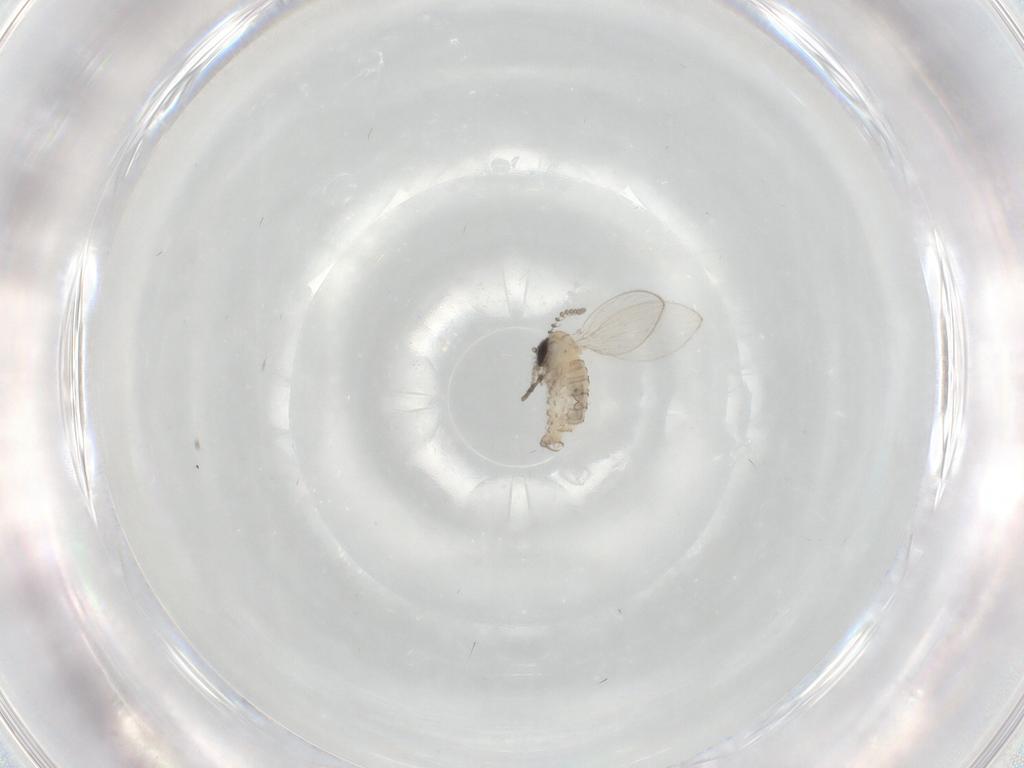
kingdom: Animalia
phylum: Arthropoda
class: Insecta
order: Diptera
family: Psychodidae
